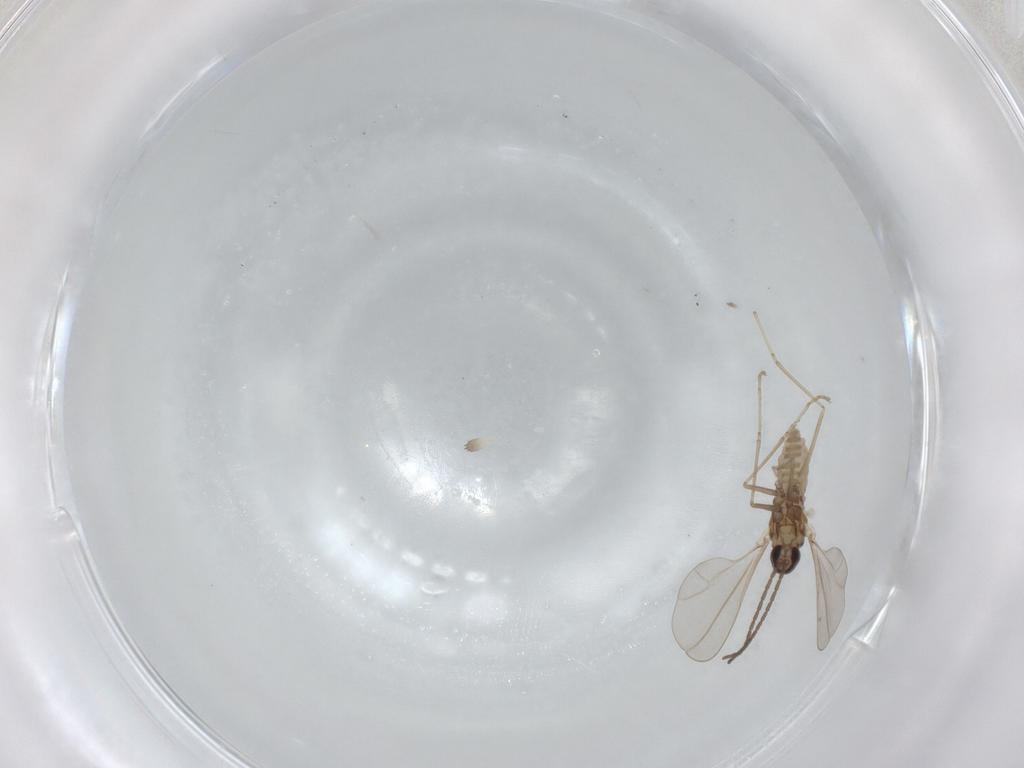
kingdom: Animalia
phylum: Arthropoda
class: Insecta
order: Diptera
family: Cecidomyiidae
